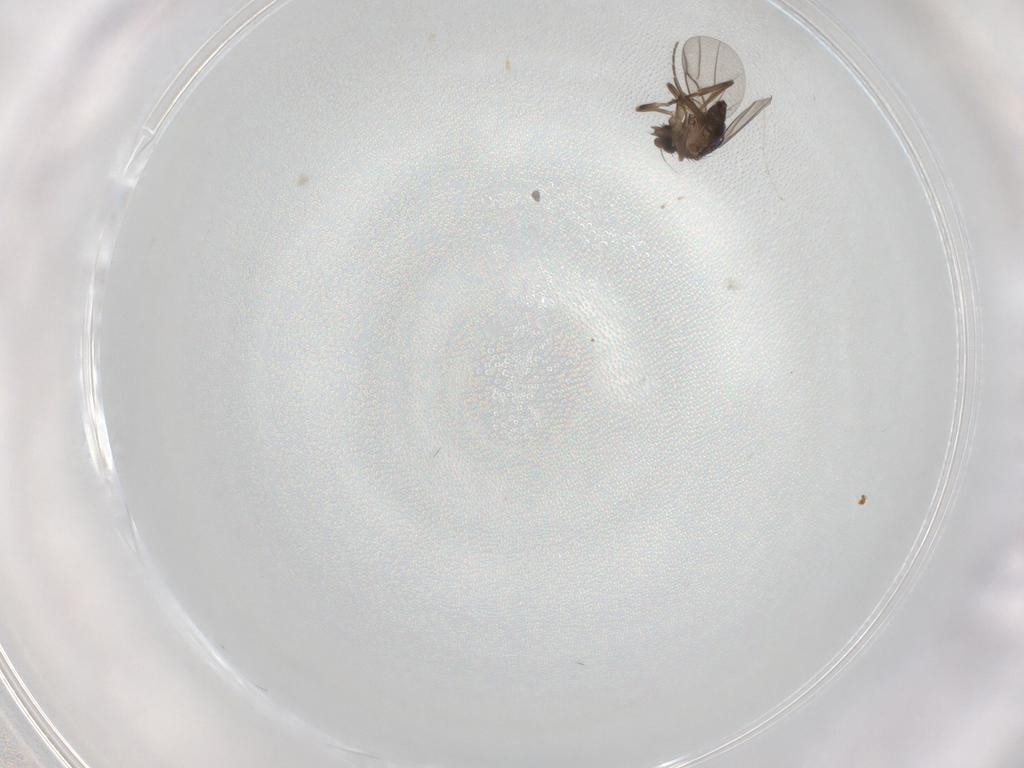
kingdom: Animalia
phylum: Arthropoda
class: Insecta
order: Diptera
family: Cecidomyiidae
